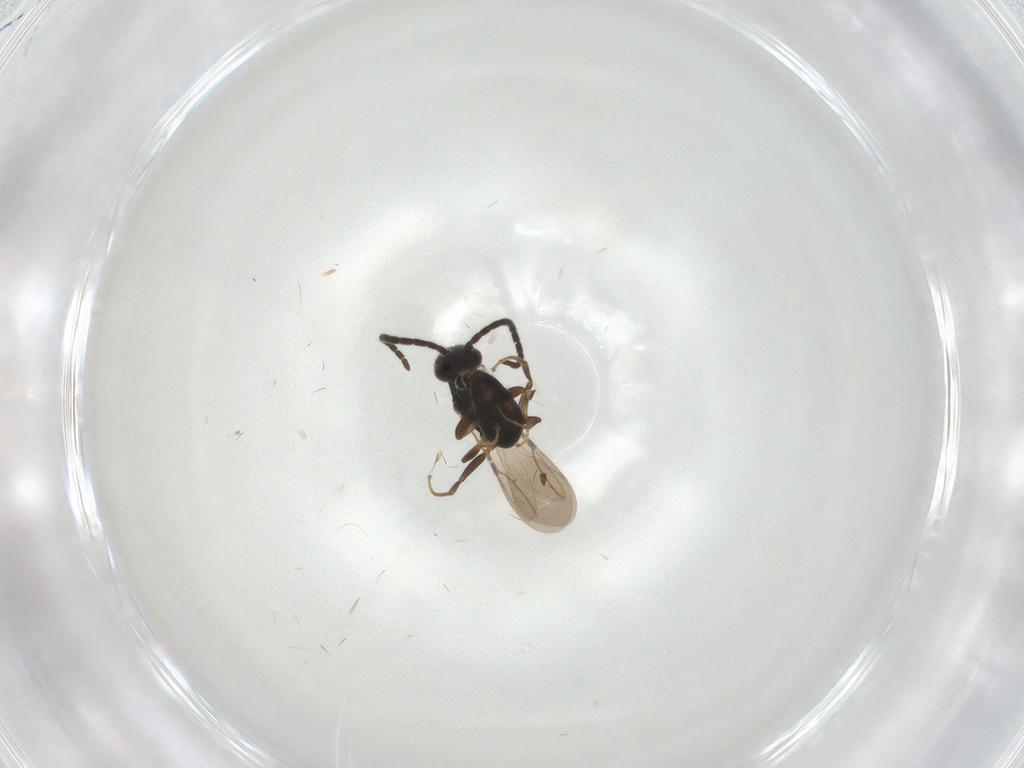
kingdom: Animalia
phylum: Arthropoda
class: Insecta
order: Hymenoptera
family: Bethylidae
